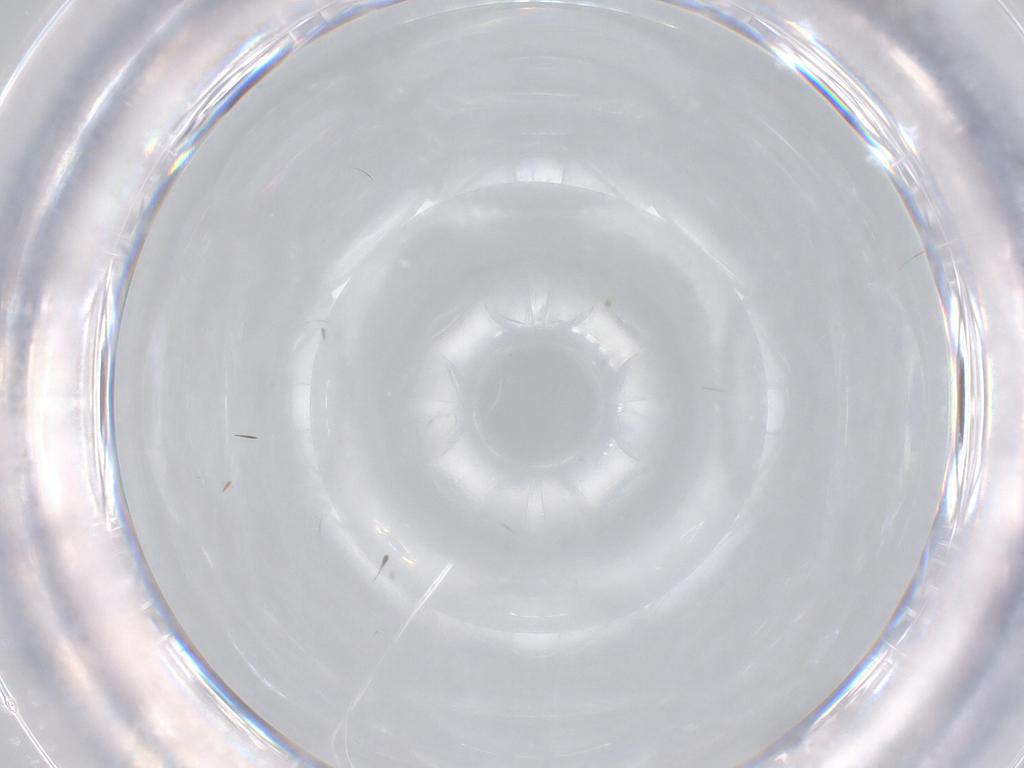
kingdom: Animalia
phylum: Arthropoda
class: Insecta
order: Diptera
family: Chironomidae
